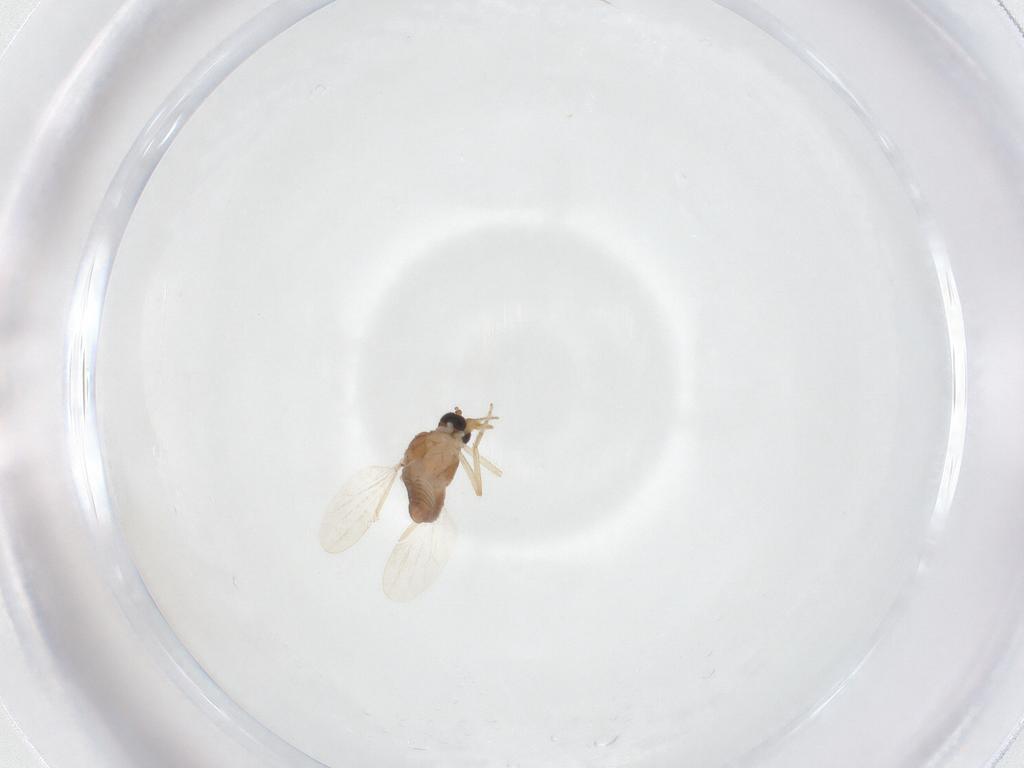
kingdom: Animalia
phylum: Arthropoda
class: Insecta
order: Diptera
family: Ceratopogonidae
